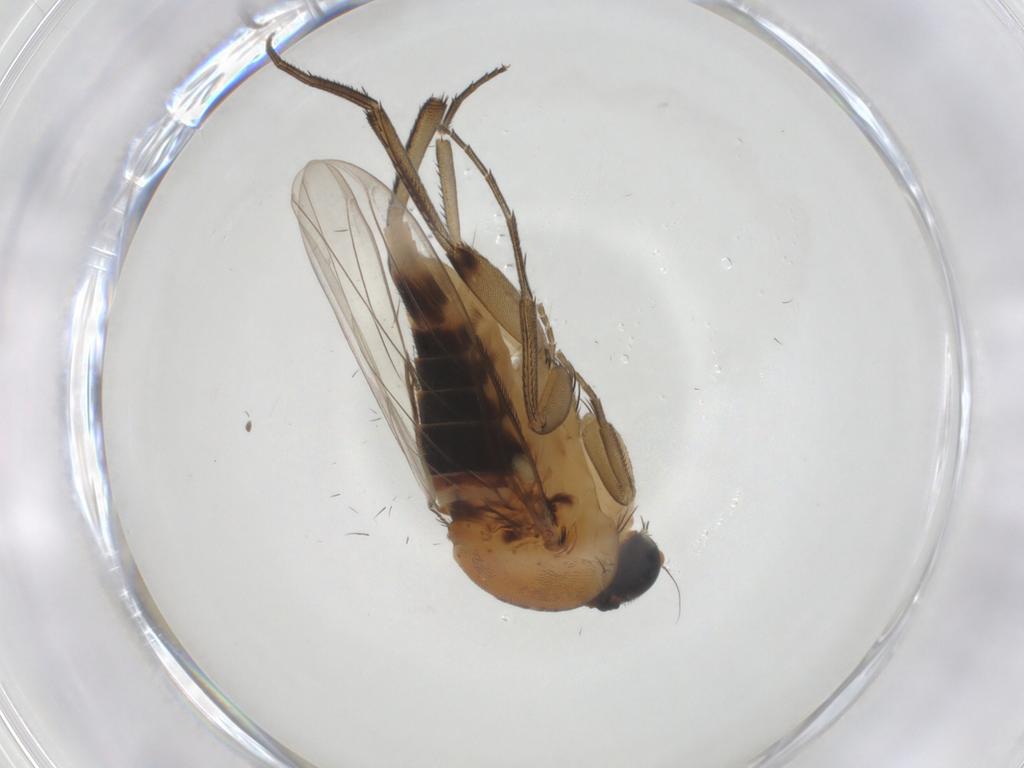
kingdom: Animalia
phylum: Arthropoda
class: Insecta
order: Diptera
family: Phoridae
